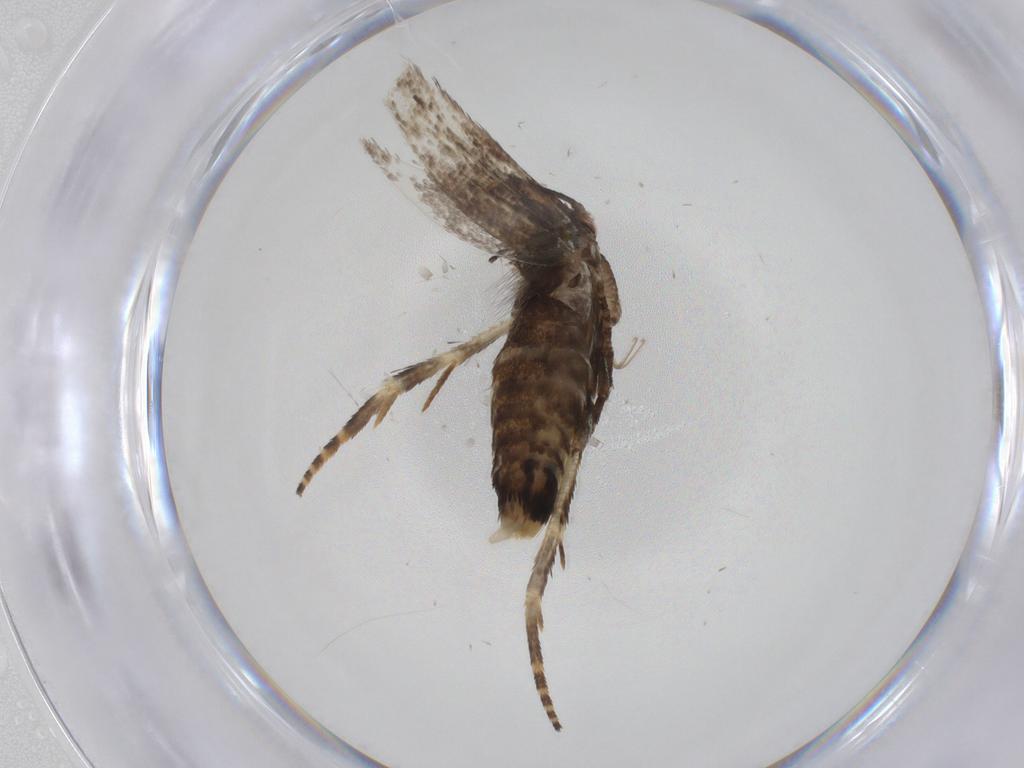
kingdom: Animalia
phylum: Arthropoda
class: Insecta
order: Lepidoptera
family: Momphidae
